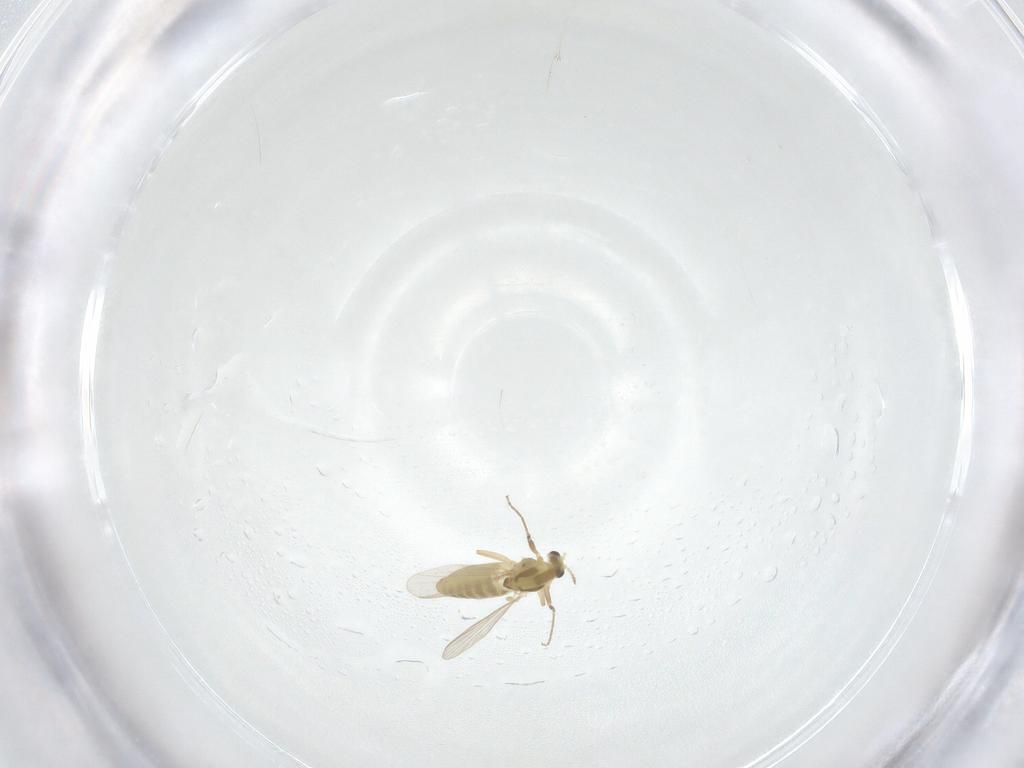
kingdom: Animalia
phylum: Arthropoda
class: Insecta
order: Diptera
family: Chironomidae
